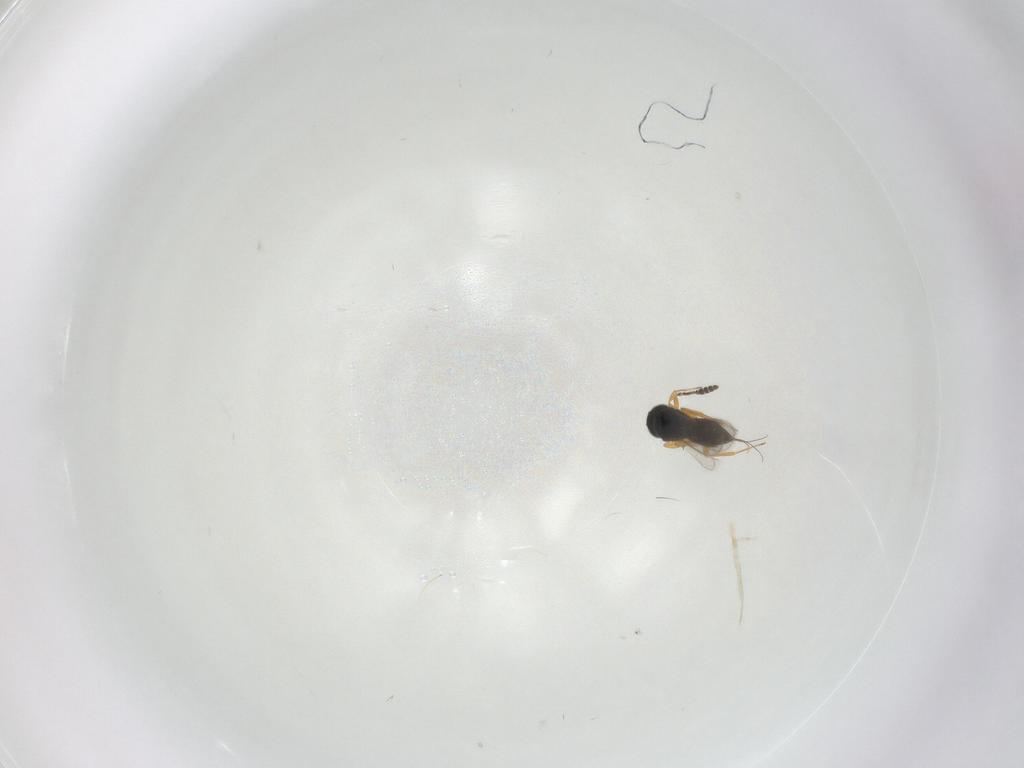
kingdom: Animalia
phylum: Arthropoda
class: Insecta
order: Hymenoptera
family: Scelionidae
